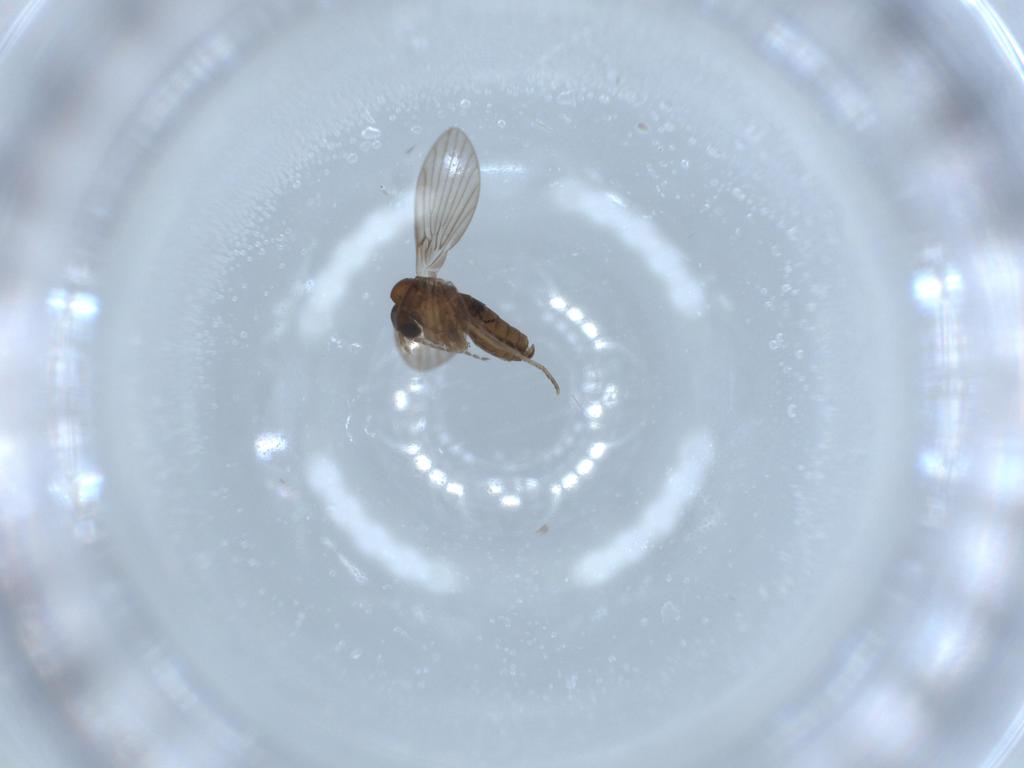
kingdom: Animalia
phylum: Arthropoda
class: Insecta
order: Diptera
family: Psychodidae
